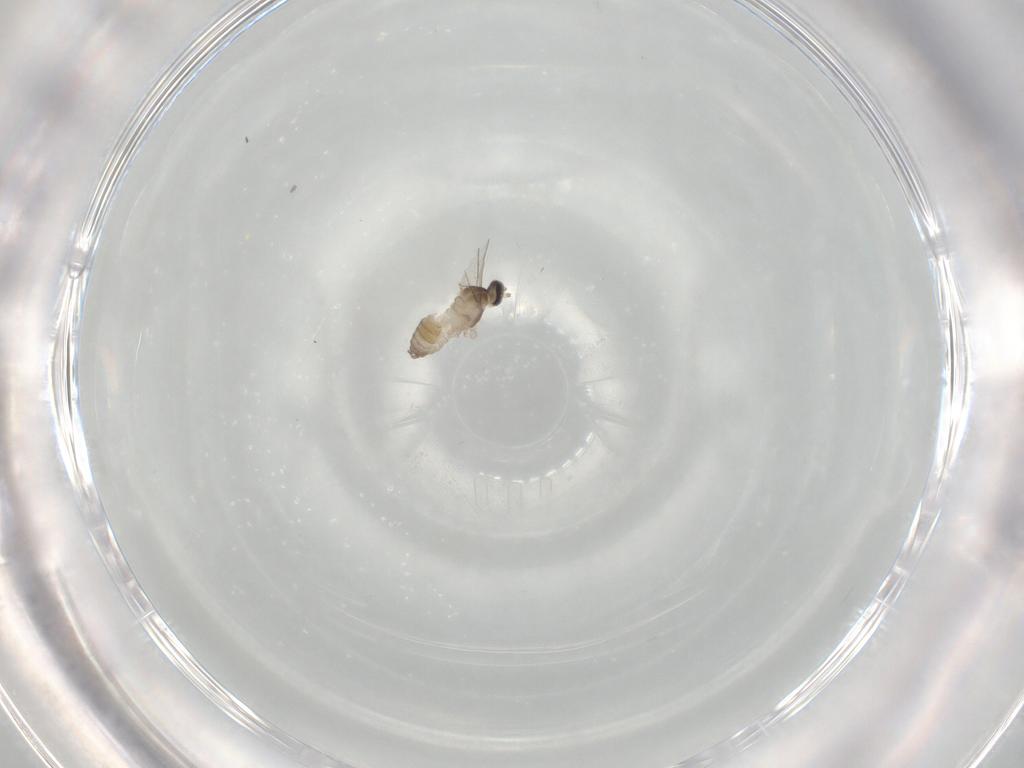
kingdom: Animalia
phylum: Arthropoda
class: Insecta
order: Diptera
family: Cecidomyiidae
